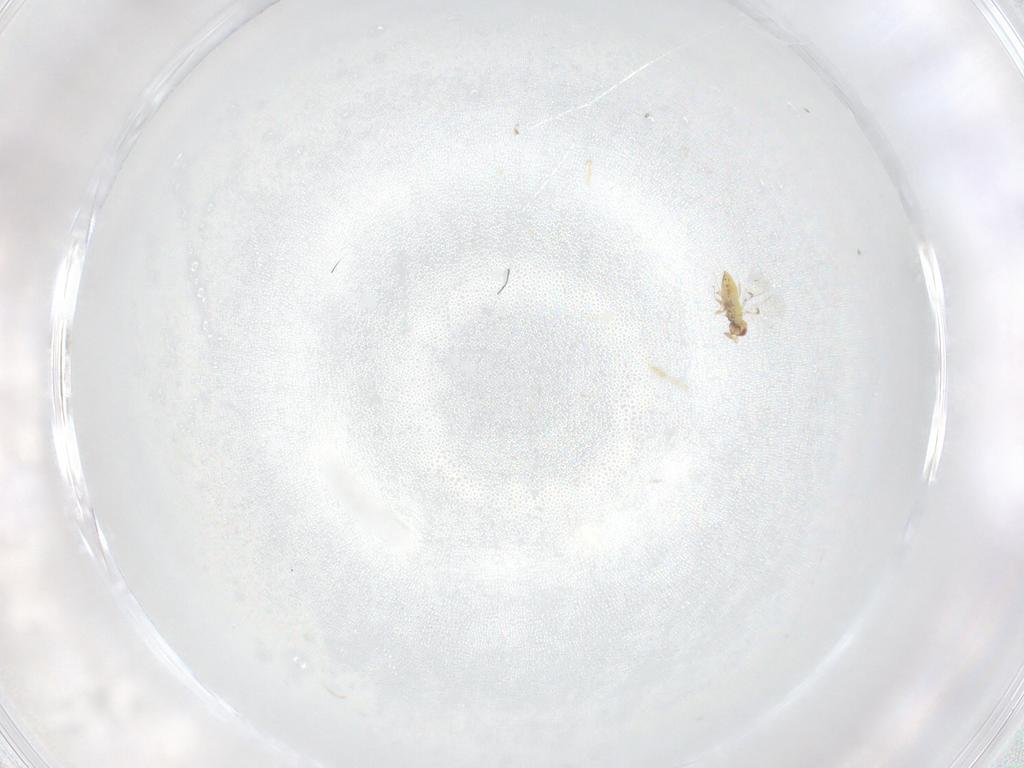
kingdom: Animalia
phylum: Arthropoda
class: Insecta
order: Hymenoptera
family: Trichogrammatidae
